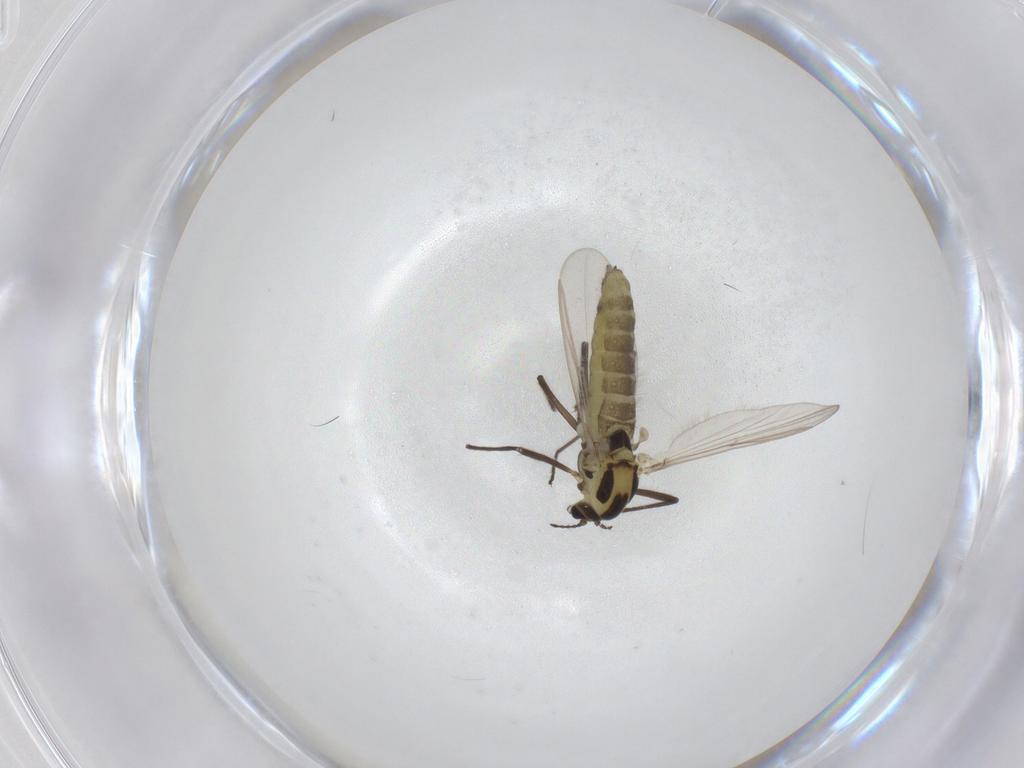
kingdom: Animalia
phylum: Arthropoda
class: Insecta
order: Diptera
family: Chironomidae
